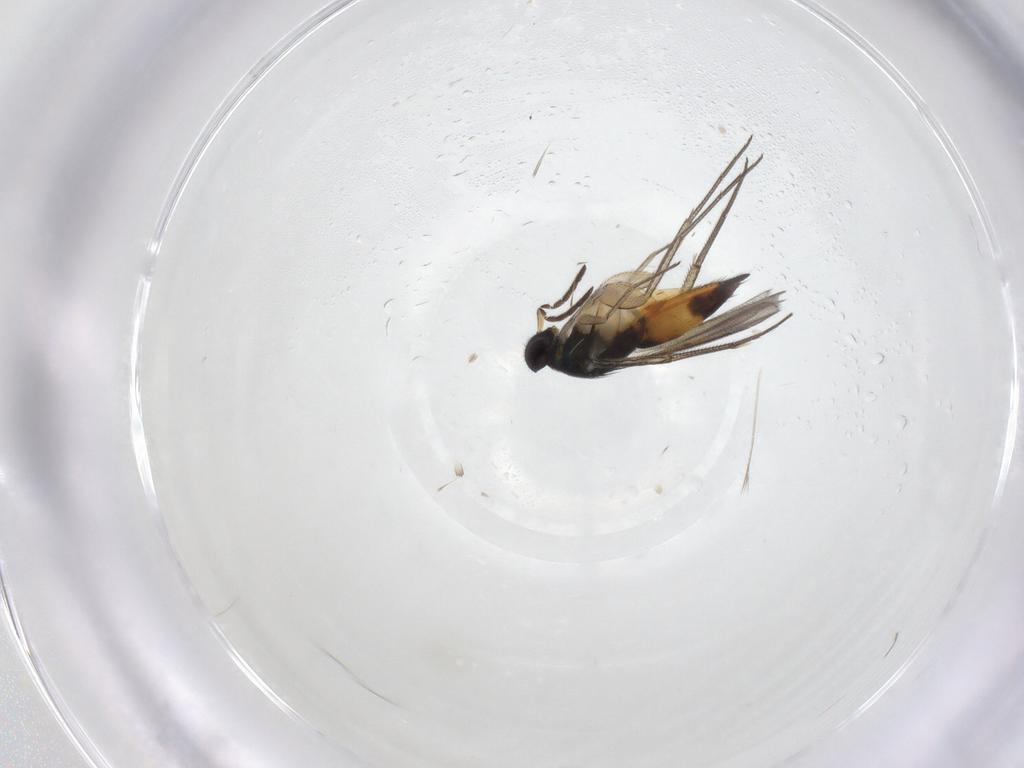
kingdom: Animalia
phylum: Arthropoda
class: Insecta
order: Hymenoptera
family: Eulophidae
